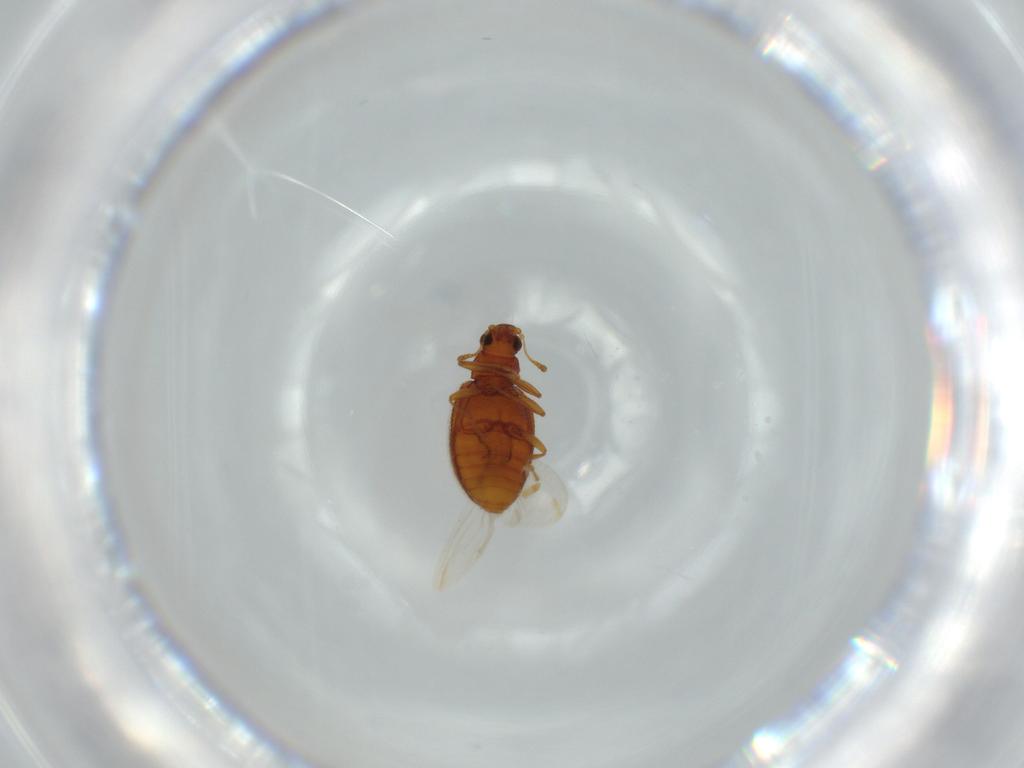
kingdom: Animalia
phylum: Arthropoda
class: Insecta
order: Coleoptera
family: Latridiidae
